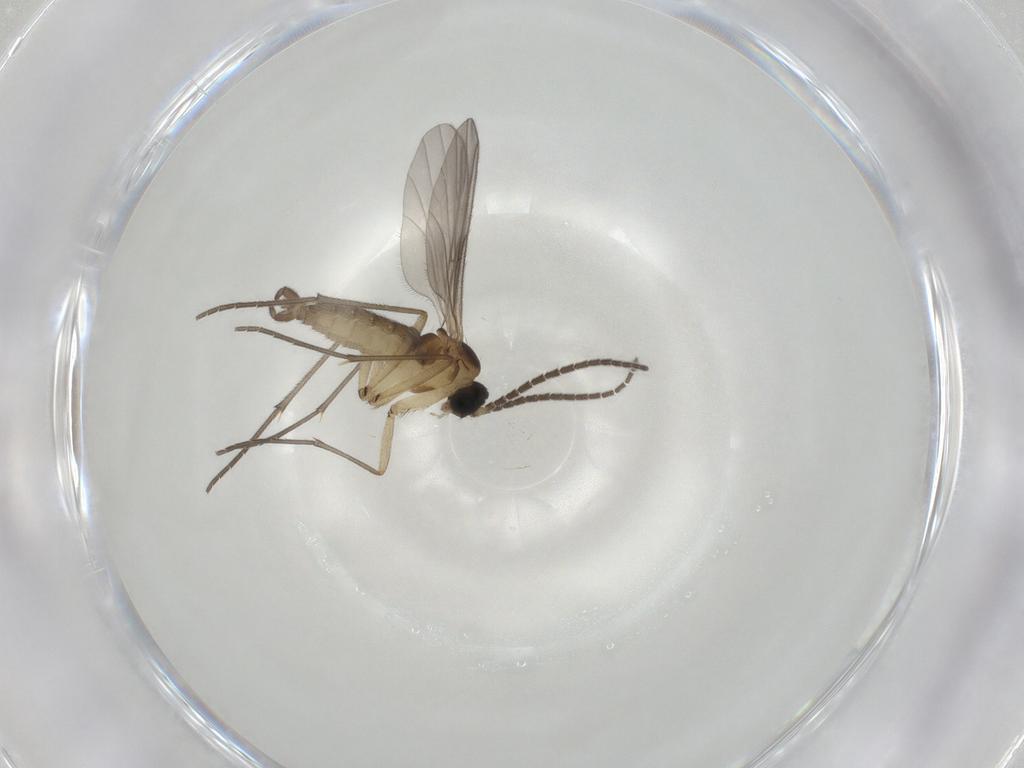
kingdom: Animalia
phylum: Arthropoda
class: Insecta
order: Diptera
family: Sciaridae
